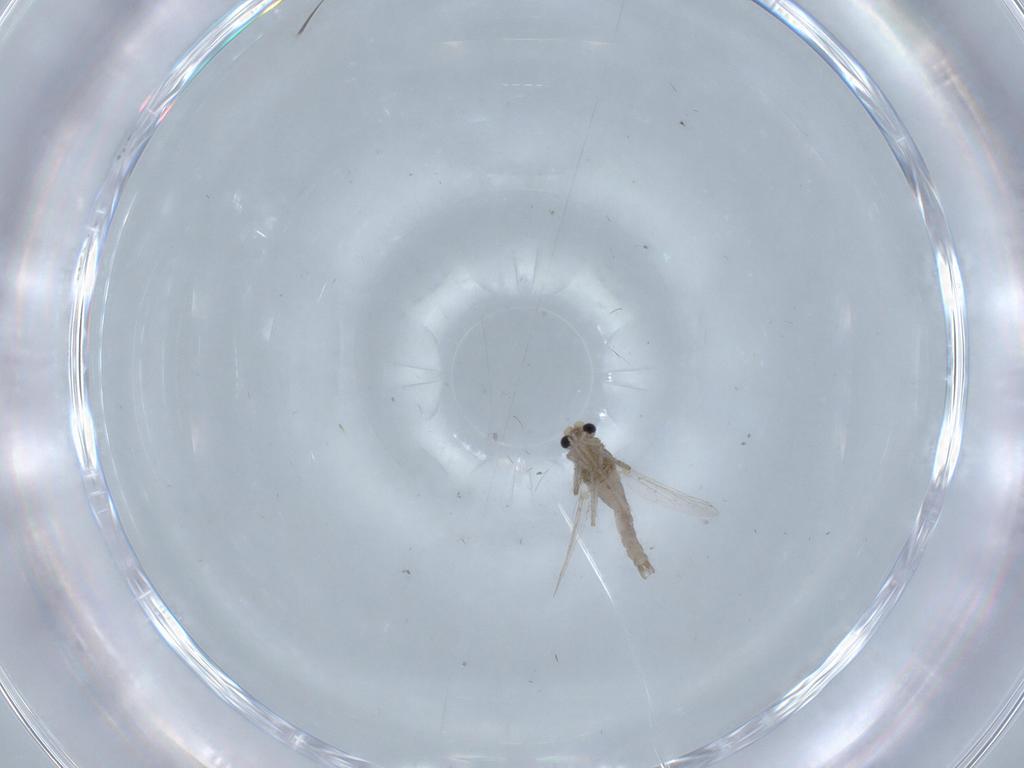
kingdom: Animalia
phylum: Arthropoda
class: Insecta
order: Diptera
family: Chironomidae
